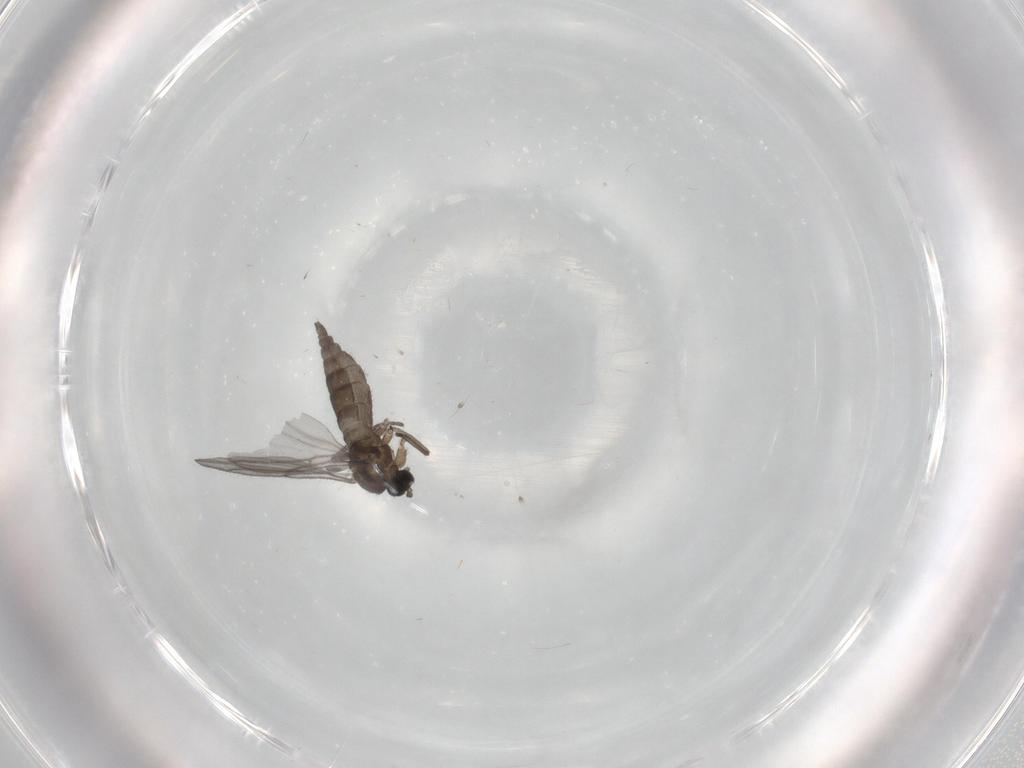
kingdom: Animalia
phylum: Arthropoda
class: Insecta
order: Diptera
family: Cecidomyiidae
